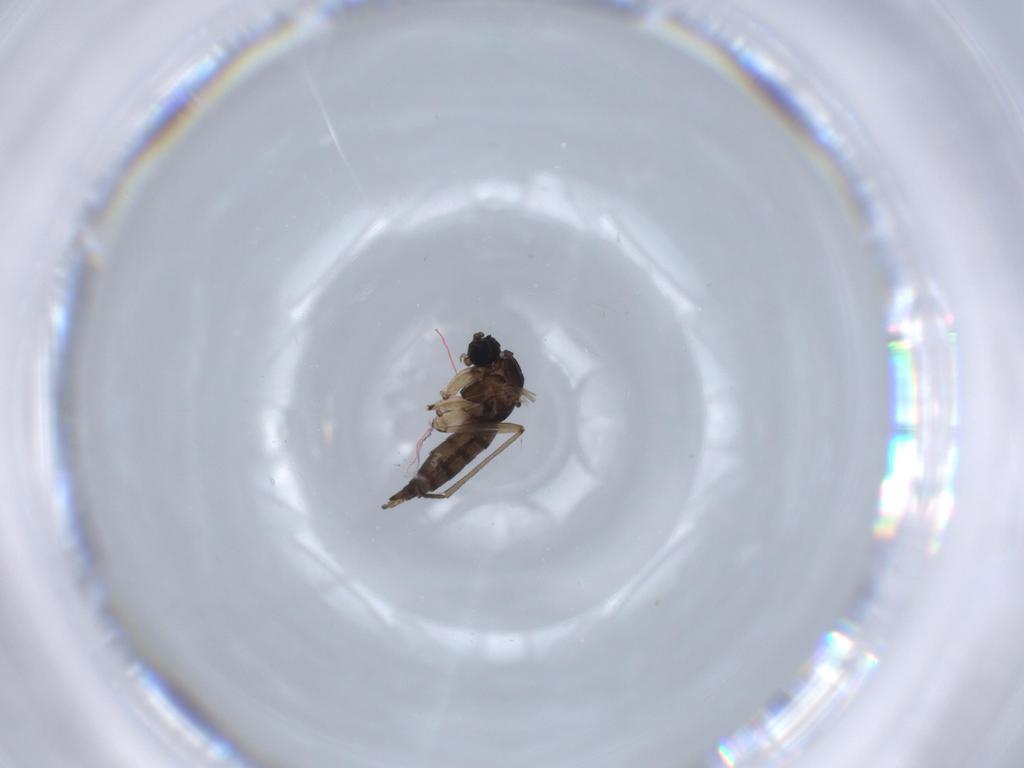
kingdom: Animalia
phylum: Arthropoda
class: Insecta
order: Diptera
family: Sciaridae
